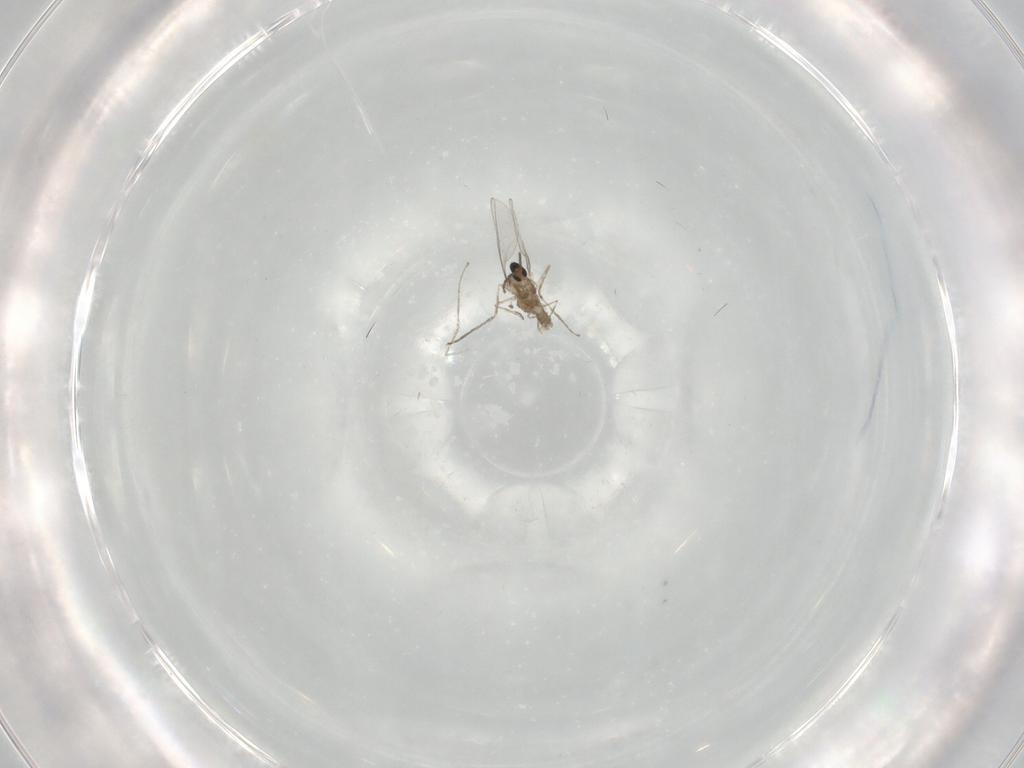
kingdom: Animalia
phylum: Arthropoda
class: Insecta
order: Diptera
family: Cecidomyiidae
